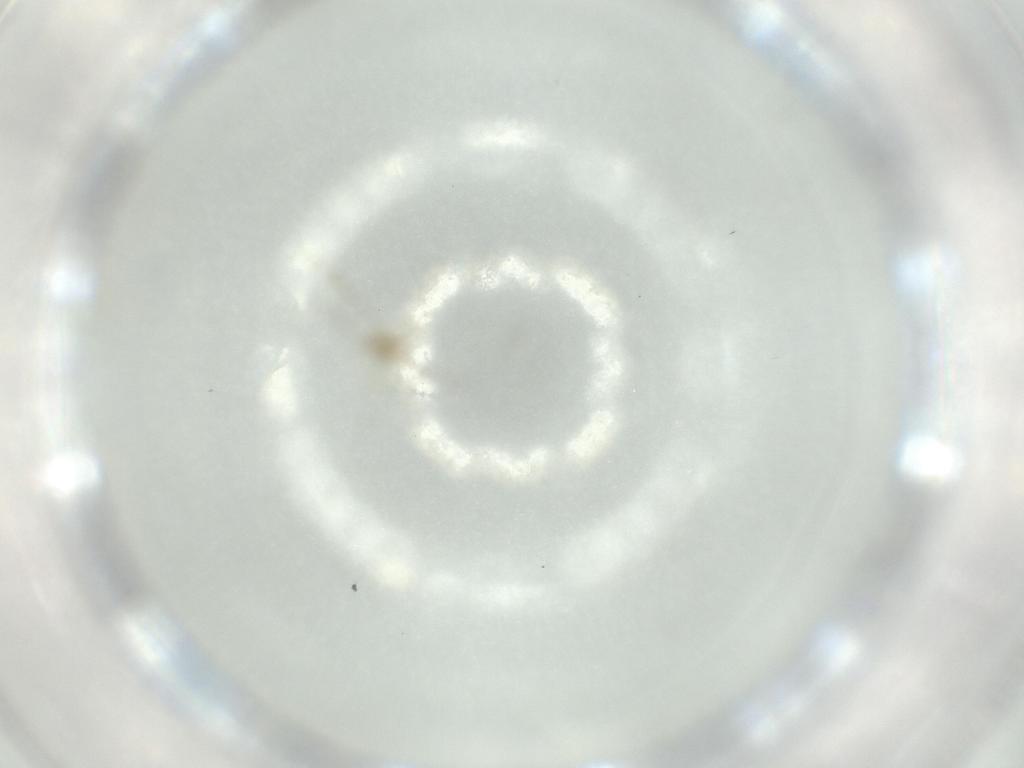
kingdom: Animalia
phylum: Arthropoda
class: Insecta
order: Diptera
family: Cecidomyiidae
